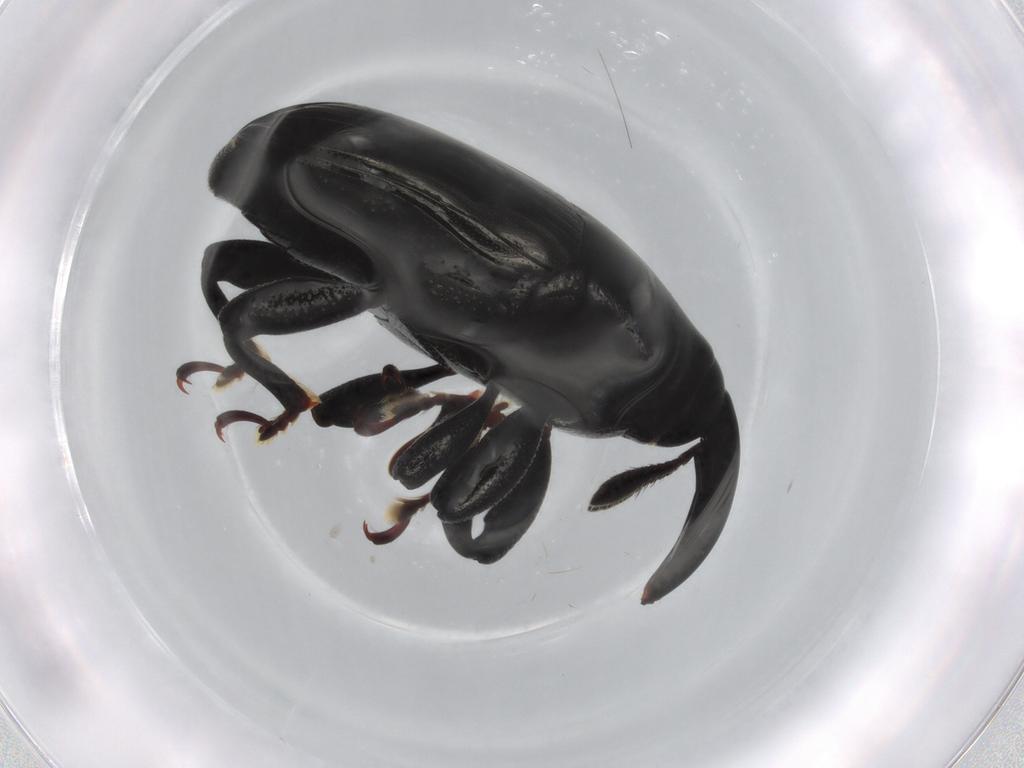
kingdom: Animalia
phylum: Arthropoda
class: Insecta
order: Coleoptera
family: Curculionidae
